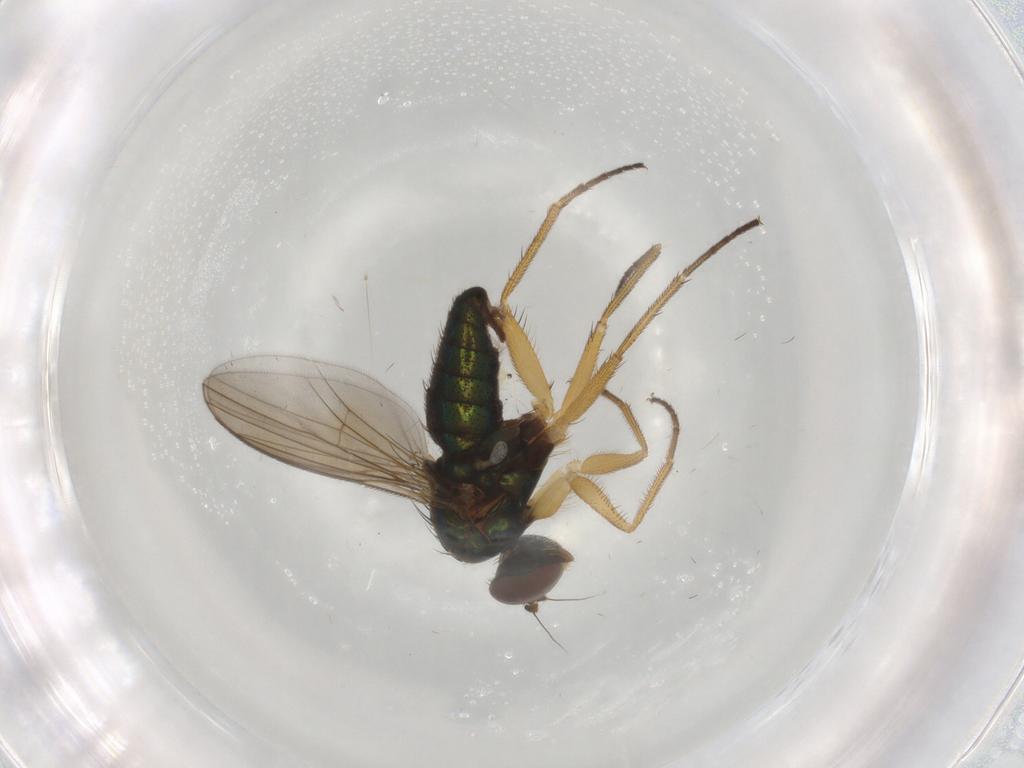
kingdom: Animalia
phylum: Arthropoda
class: Insecta
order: Diptera
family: Dolichopodidae
